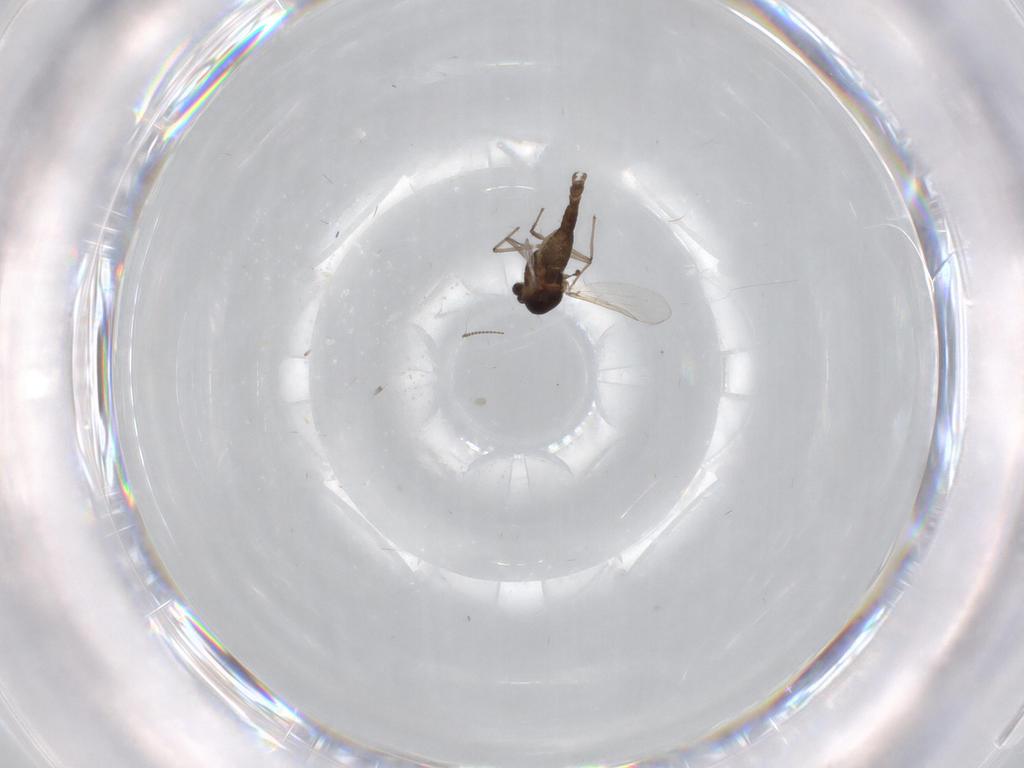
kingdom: Animalia
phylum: Arthropoda
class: Insecta
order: Diptera
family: Chironomidae
